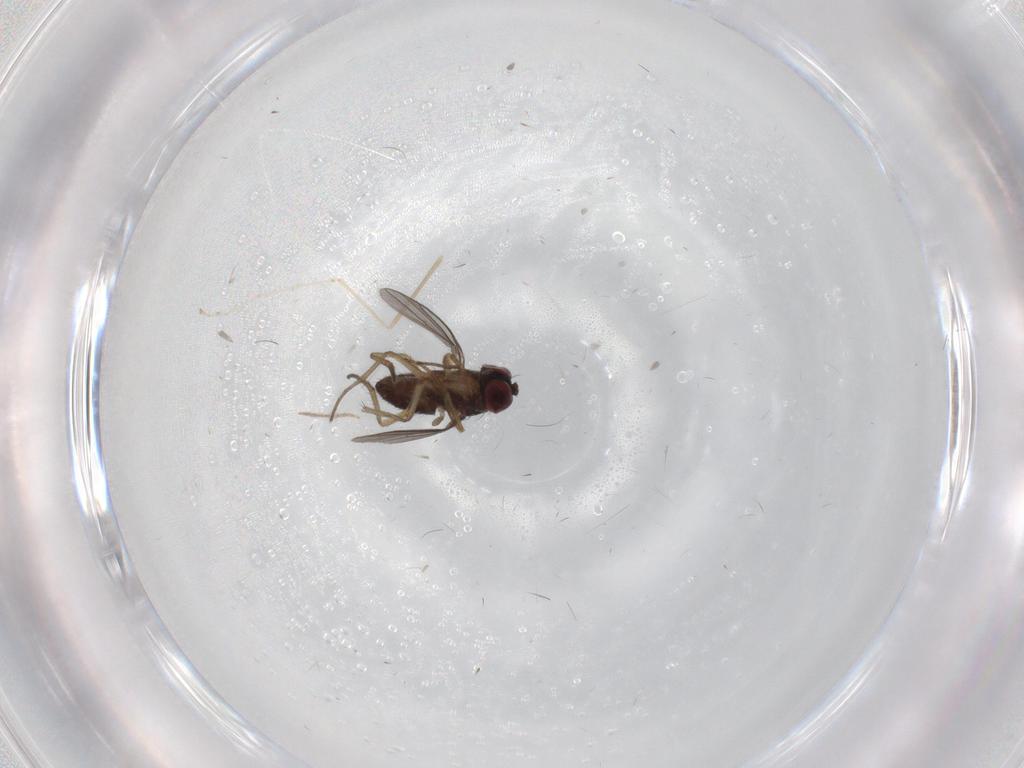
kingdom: Animalia
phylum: Arthropoda
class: Insecta
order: Diptera
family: Dolichopodidae
